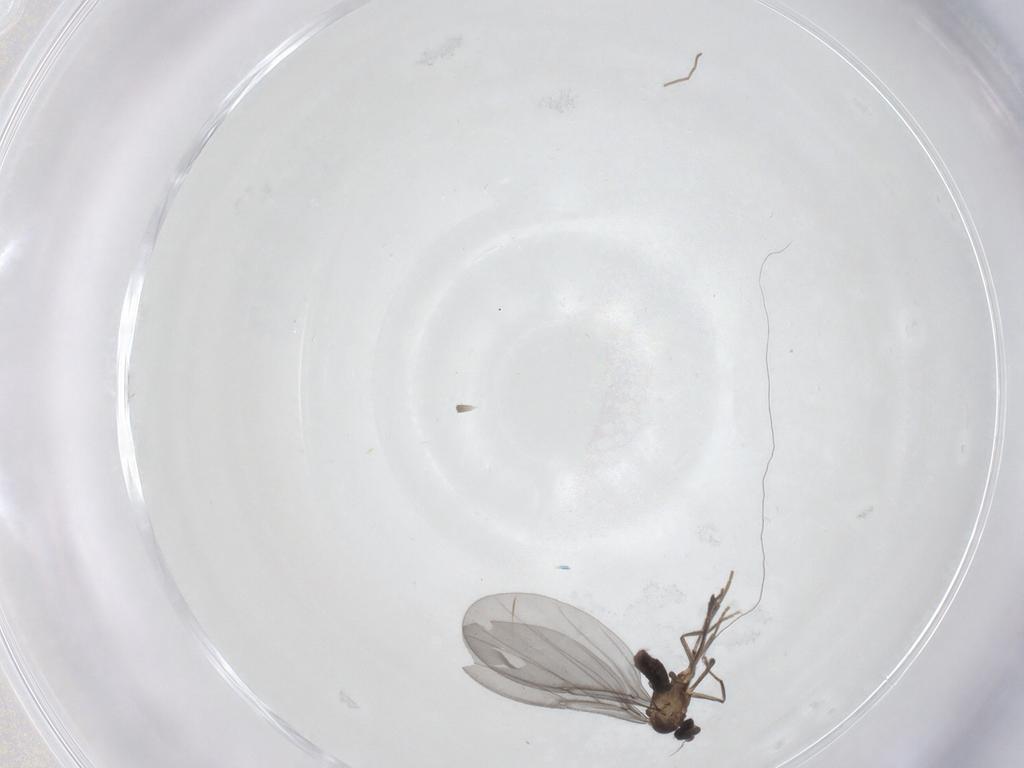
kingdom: Animalia
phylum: Arthropoda
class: Insecta
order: Diptera
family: Phoridae
